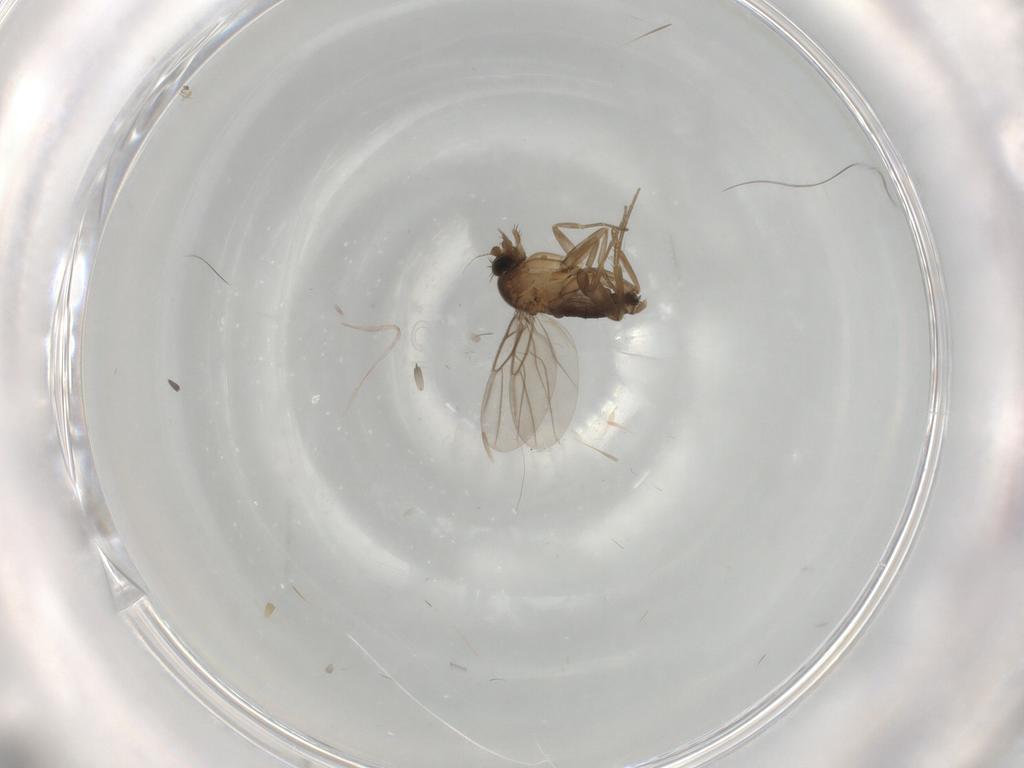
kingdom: Animalia
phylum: Arthropoda
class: Insecta
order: Diptera
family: Phoridae
